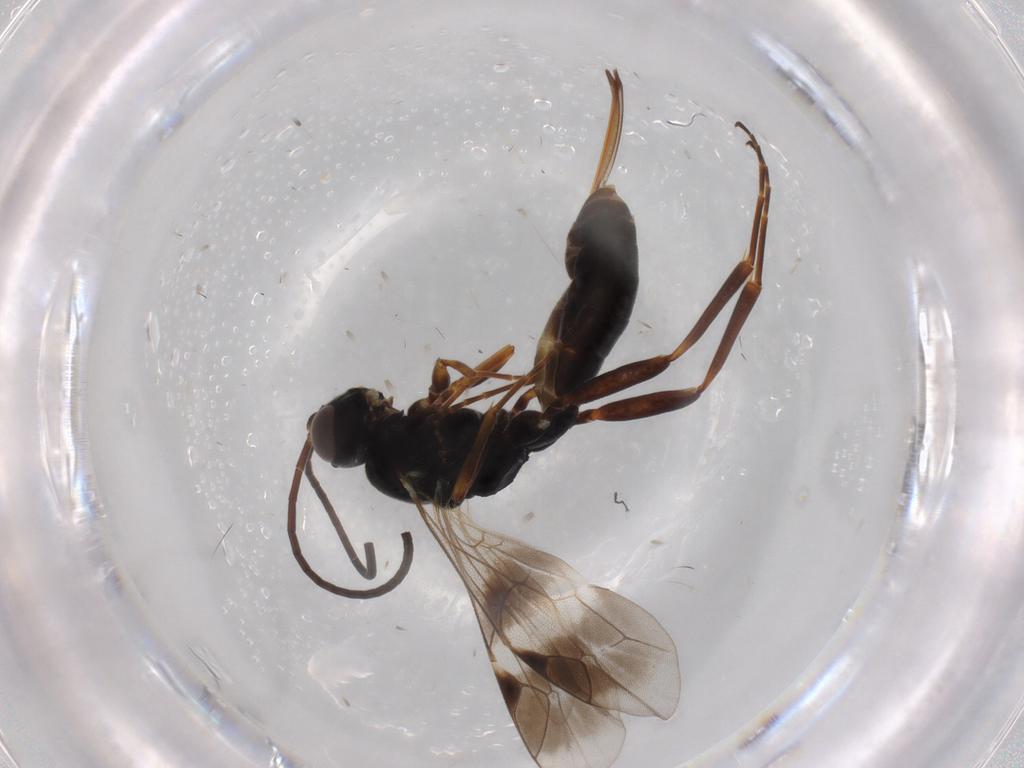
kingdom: Animalia
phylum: Arthropoda
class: Insecta
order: Hymenoptera
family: Ichneumonidae
